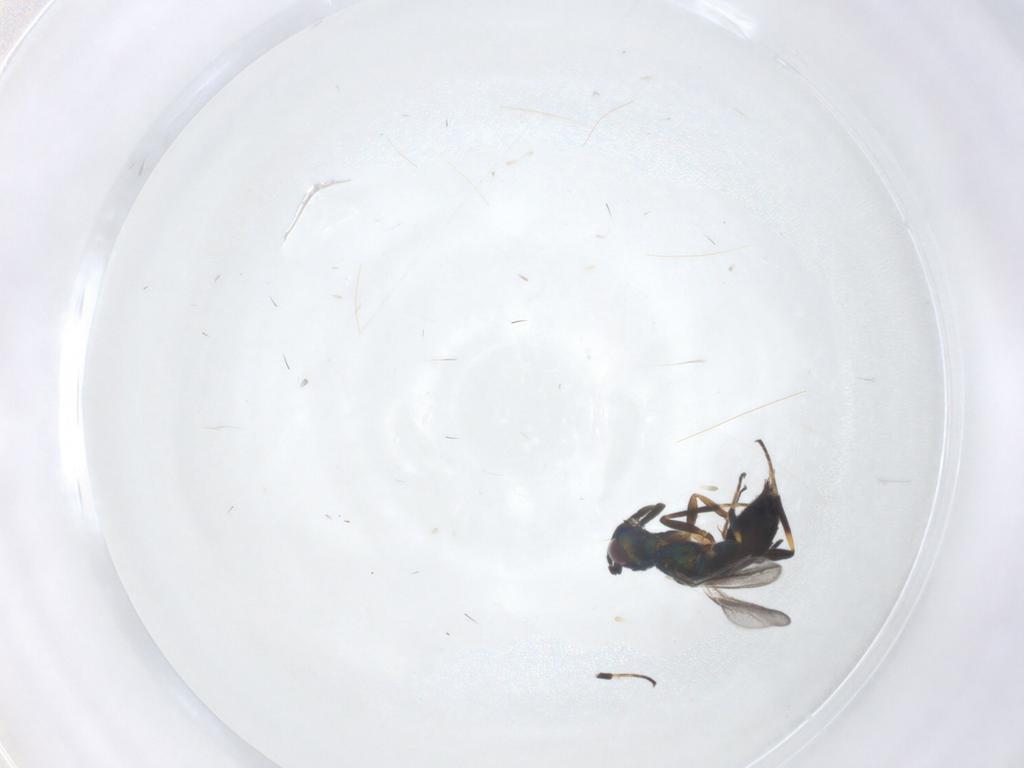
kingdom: Animalia
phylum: Arthropoda
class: Insecta
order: Hymenoptera
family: Eupelmidae
